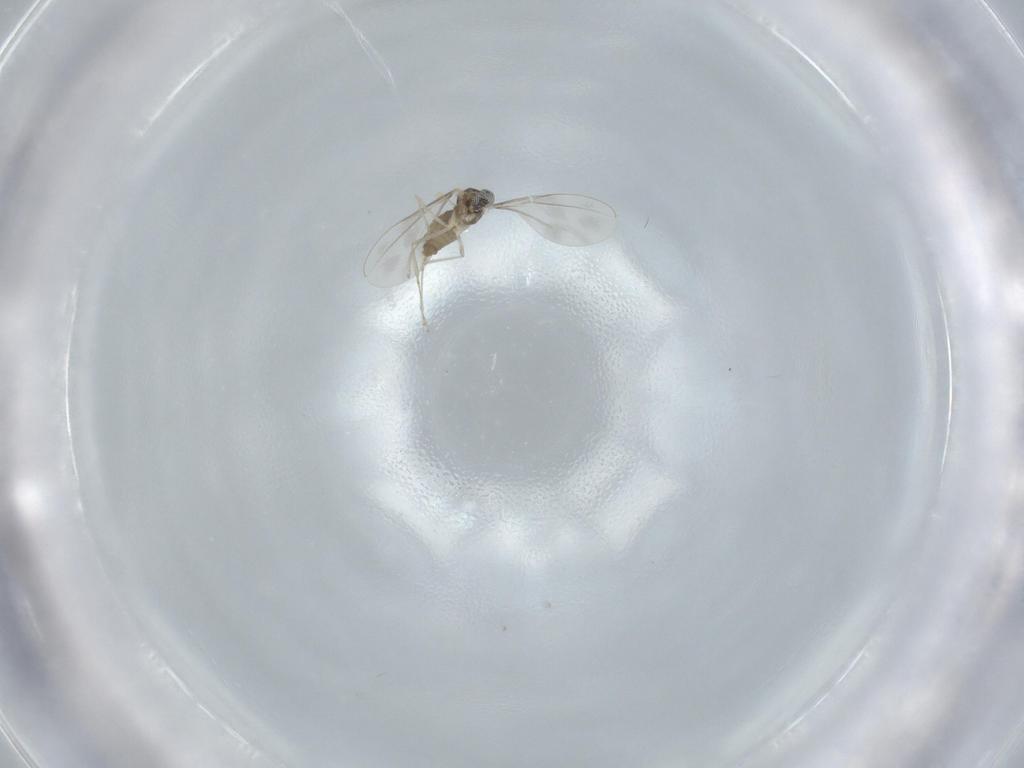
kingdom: Animalia
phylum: Arthropoda
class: Insecta
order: Diptera
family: Cecidomyiidae
